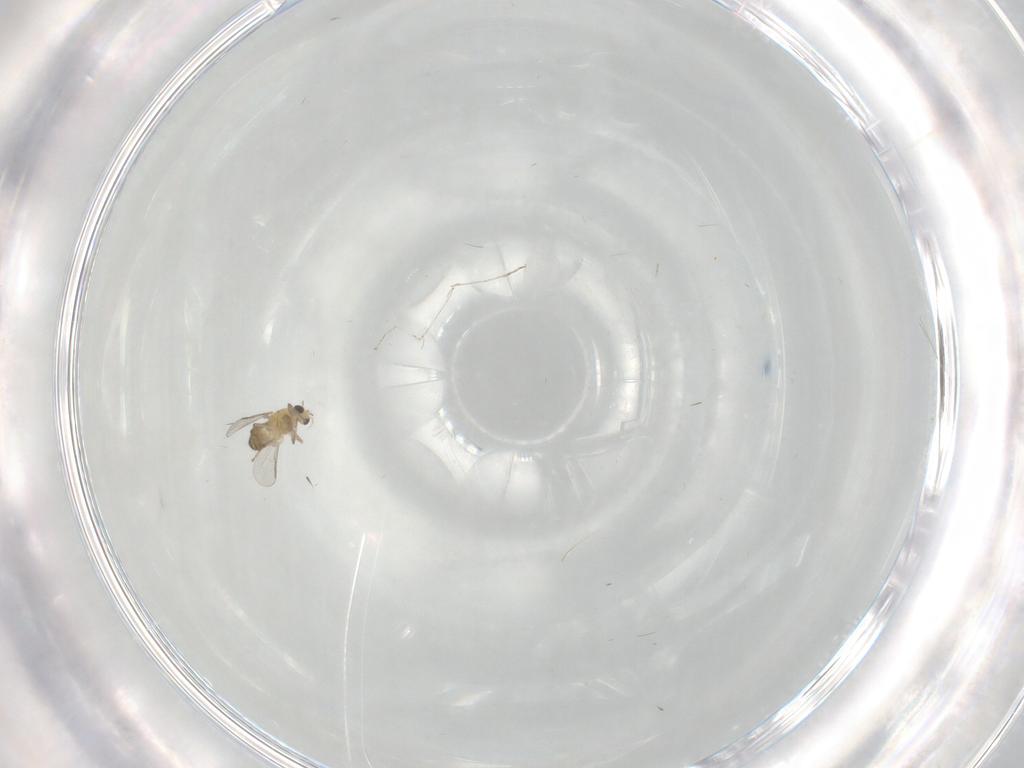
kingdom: Animalia
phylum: Arthropoda
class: Insecta
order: Diptera
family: Chironomidae
